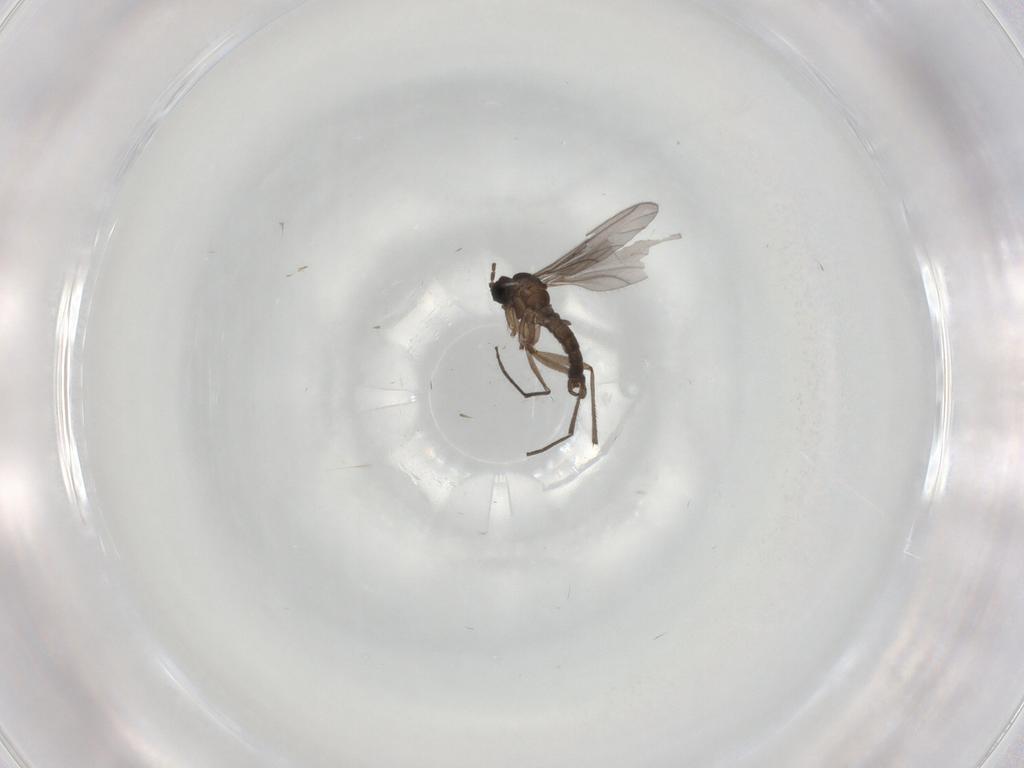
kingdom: Animalia
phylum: Arthropoda
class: Insecta
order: Diptera
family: Sciaridae
